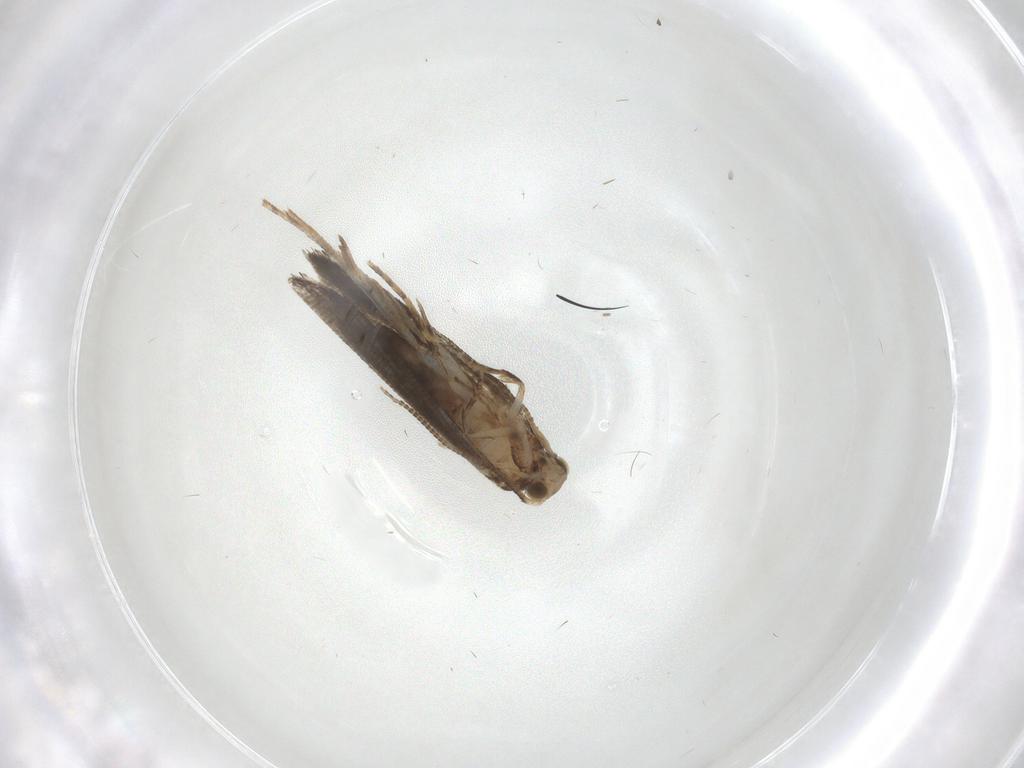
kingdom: Animalia
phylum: Arthropoda
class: Insecta
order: Lepidoptera
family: Tineidae
